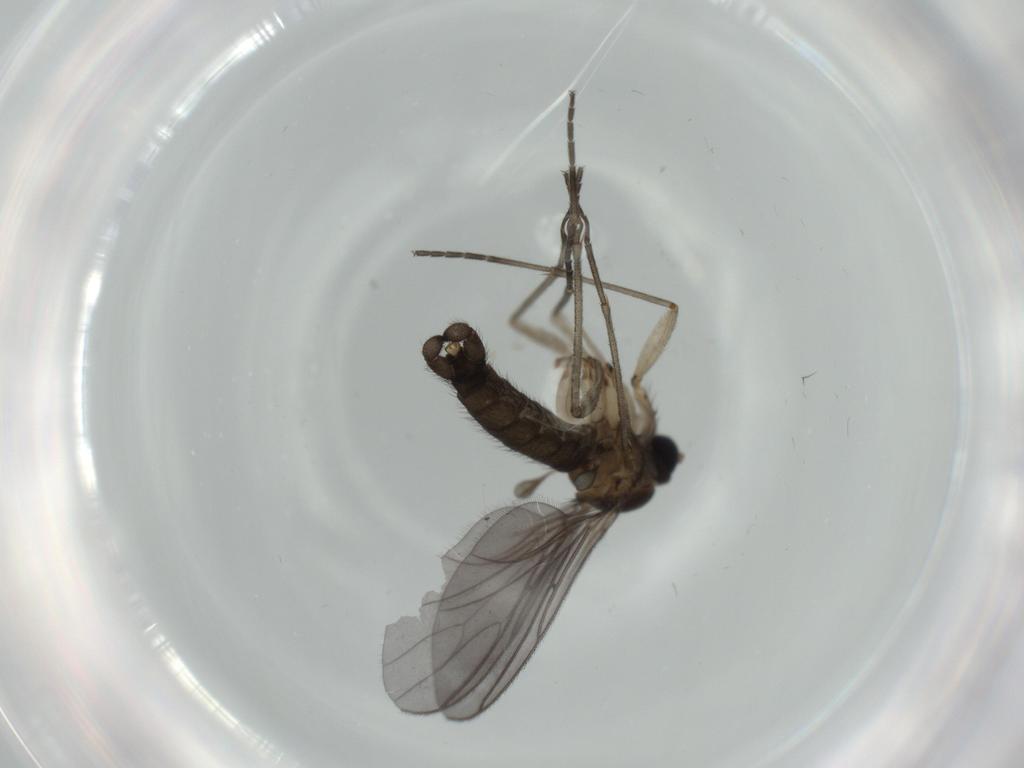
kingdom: Animalia
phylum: Arthropoda
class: Insecta
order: Diptera
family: Sciaridae
